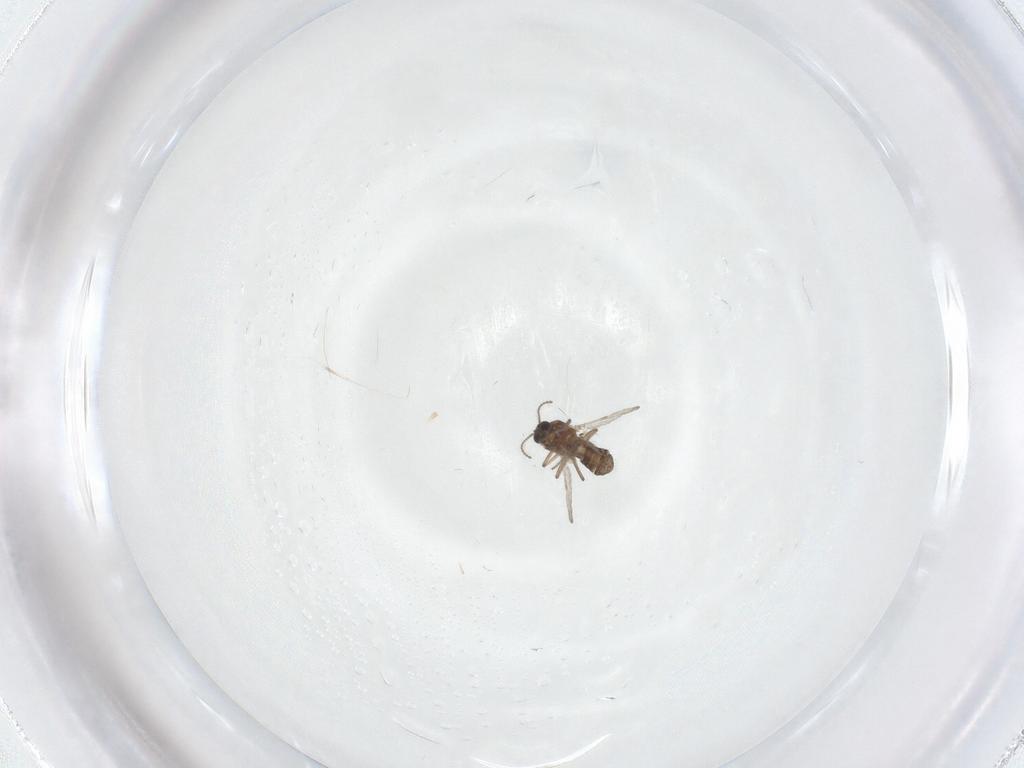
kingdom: Animalia
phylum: Arthropoda
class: Insecta
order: Diptera
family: Ceratopogonidae
